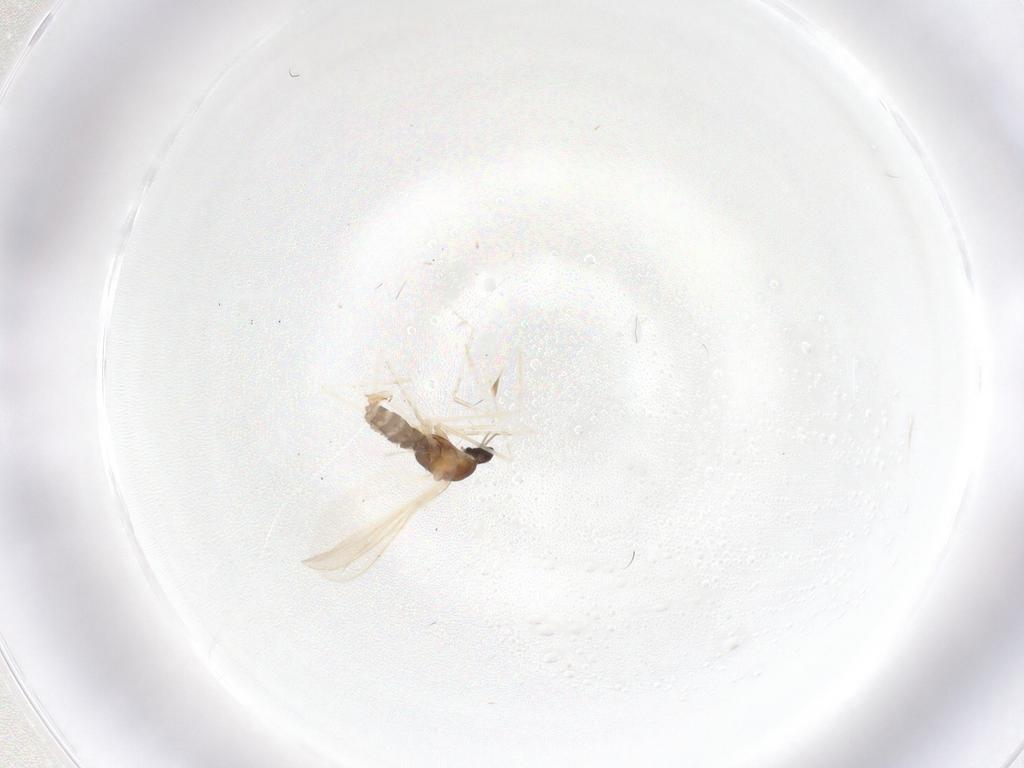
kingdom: Animalia
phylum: Arthropoda
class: Insecta
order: Diptera
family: Cecidomyiidae
